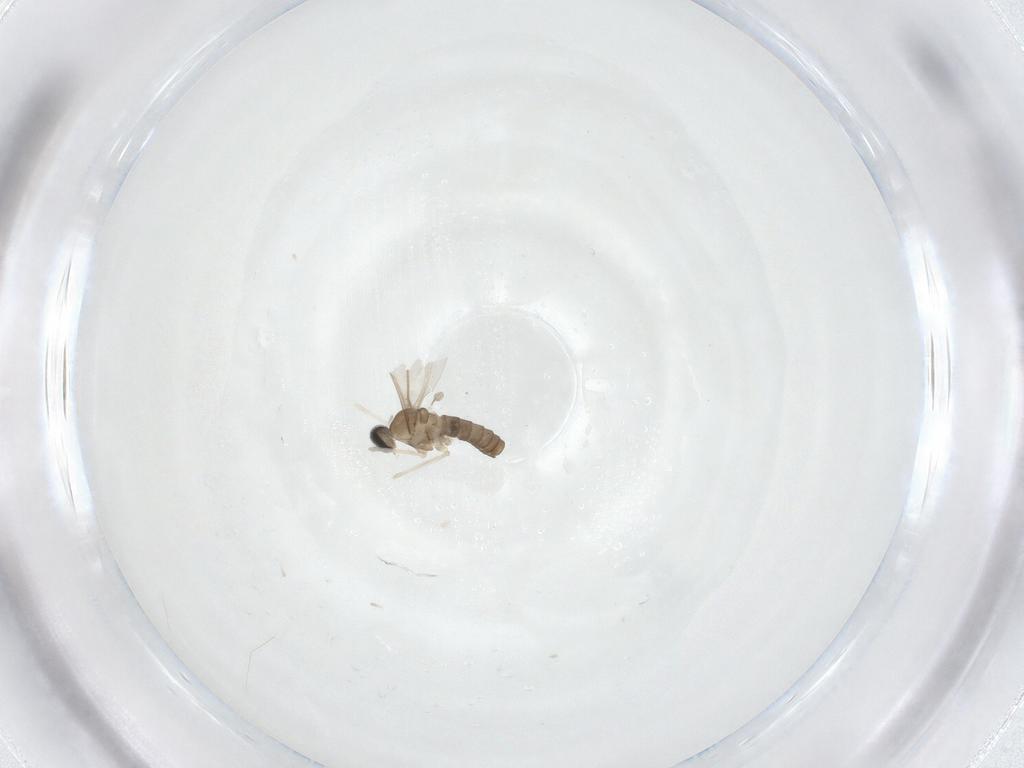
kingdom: Animalia
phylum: Arthropoda
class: Insecta
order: Diptera
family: Cecidomyiidae
